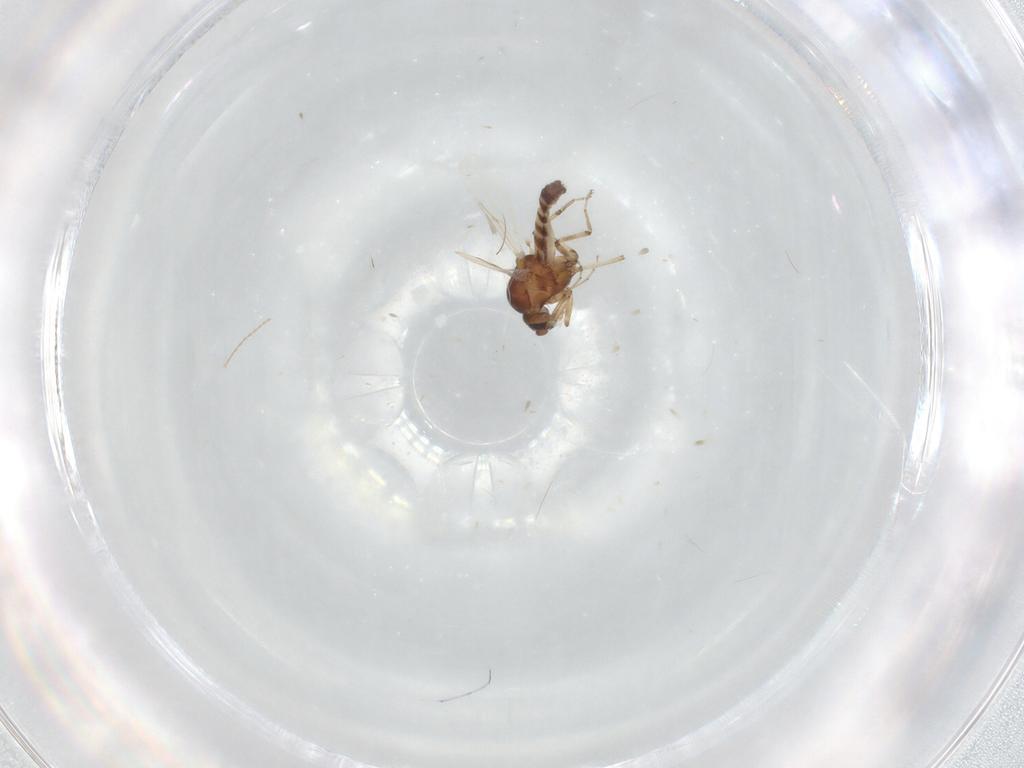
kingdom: Animalia
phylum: Arthropoda
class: Insecta
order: Diptera
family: Ceratopogonidae
